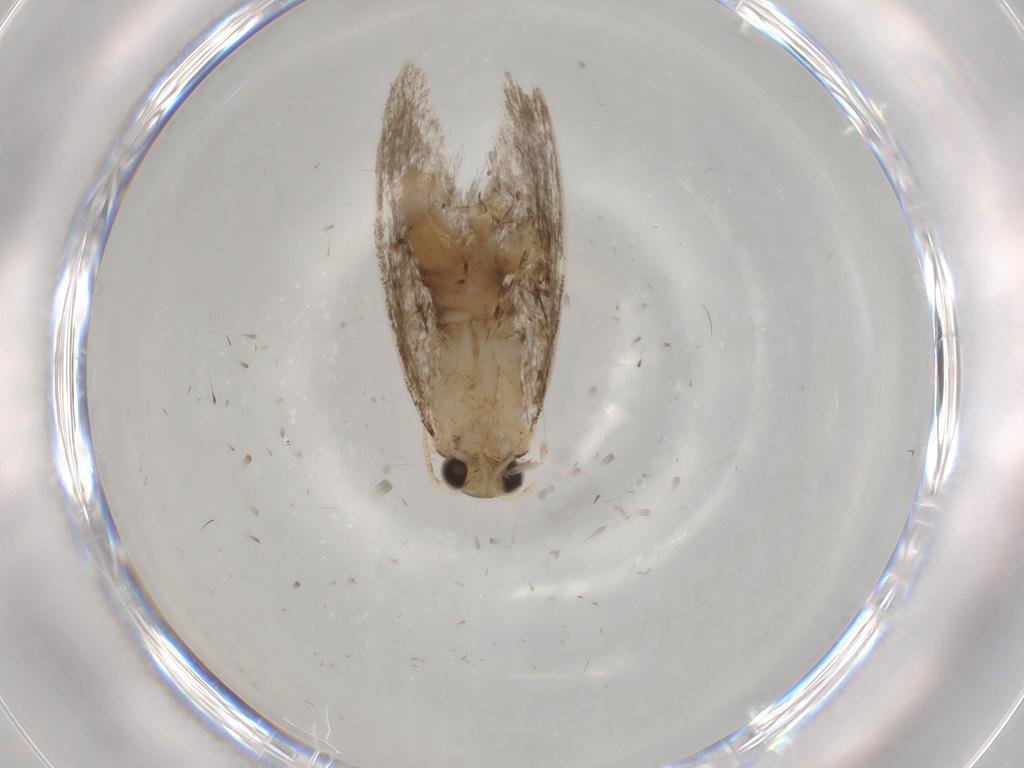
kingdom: Animalia
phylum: Arthropoda
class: Insecta
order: Lepidoptera
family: Tineidae
